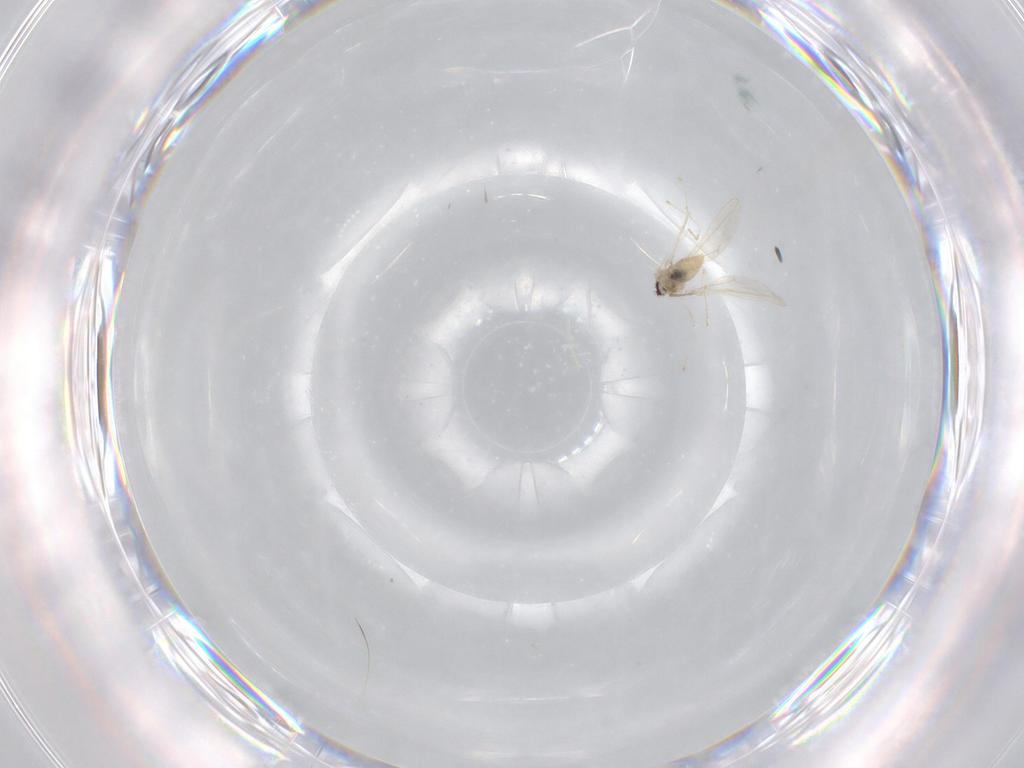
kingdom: Animalia
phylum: Arthropoda
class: Insecta
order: Diptera
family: Cecidomyiidae
